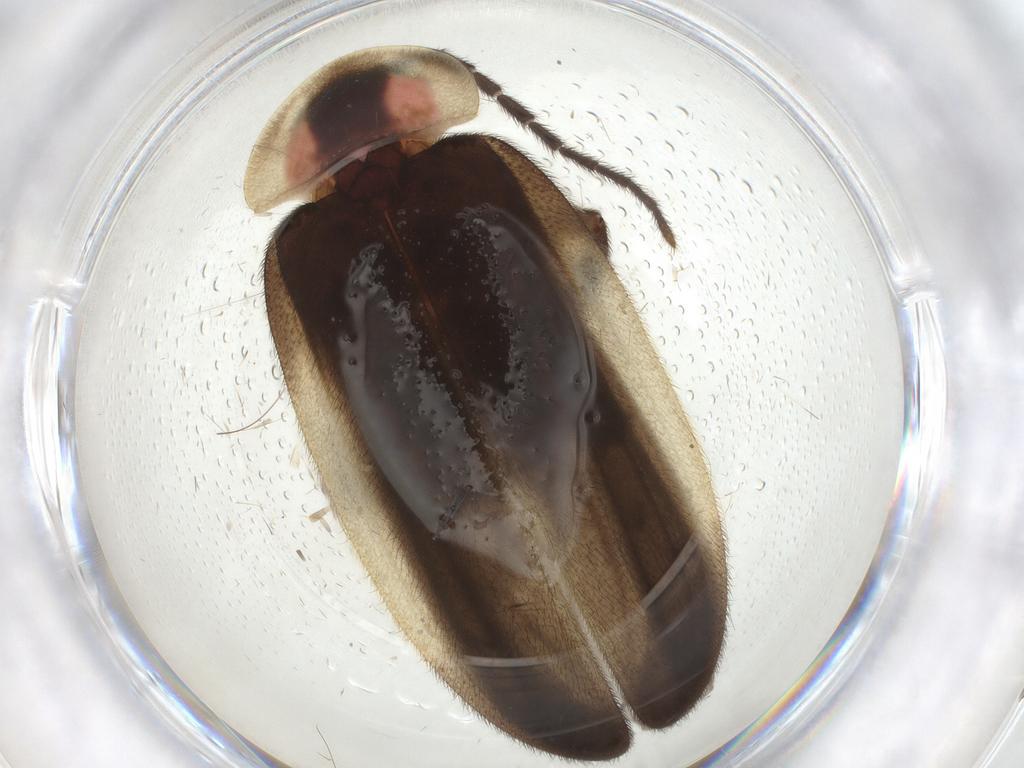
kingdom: Animalia
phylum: Arthropoda
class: Insecta
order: Coleoptera
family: Lampyridae
